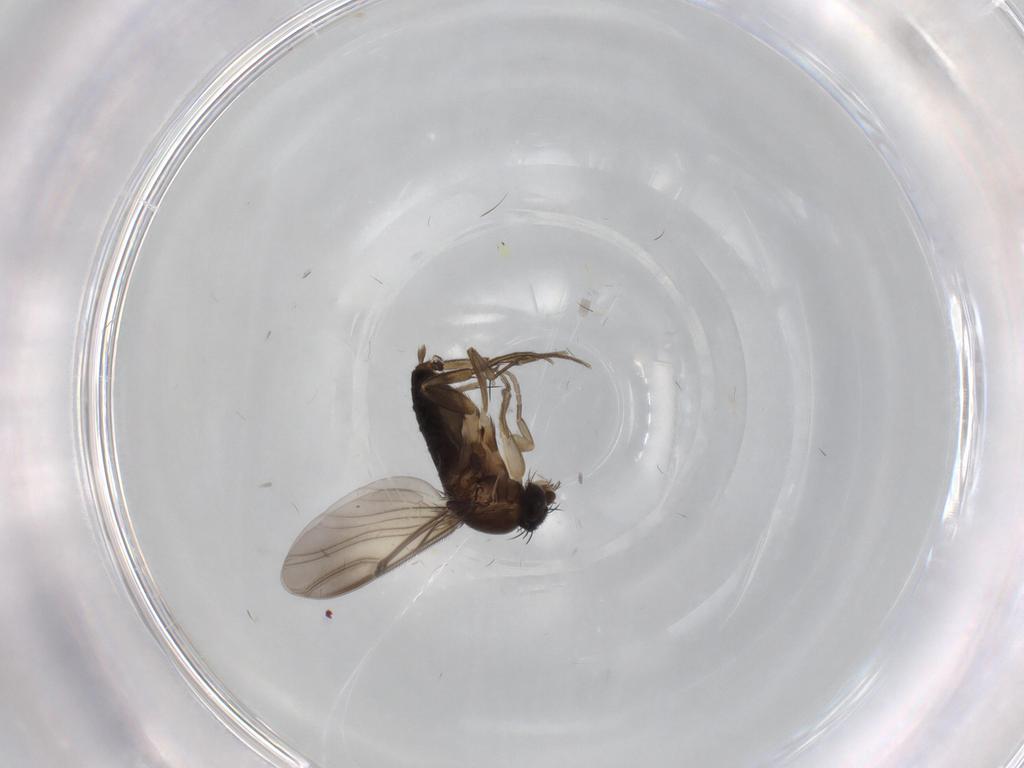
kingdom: Animalia
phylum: Arthropoda
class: Insecta
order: Diptera
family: Phoridae
